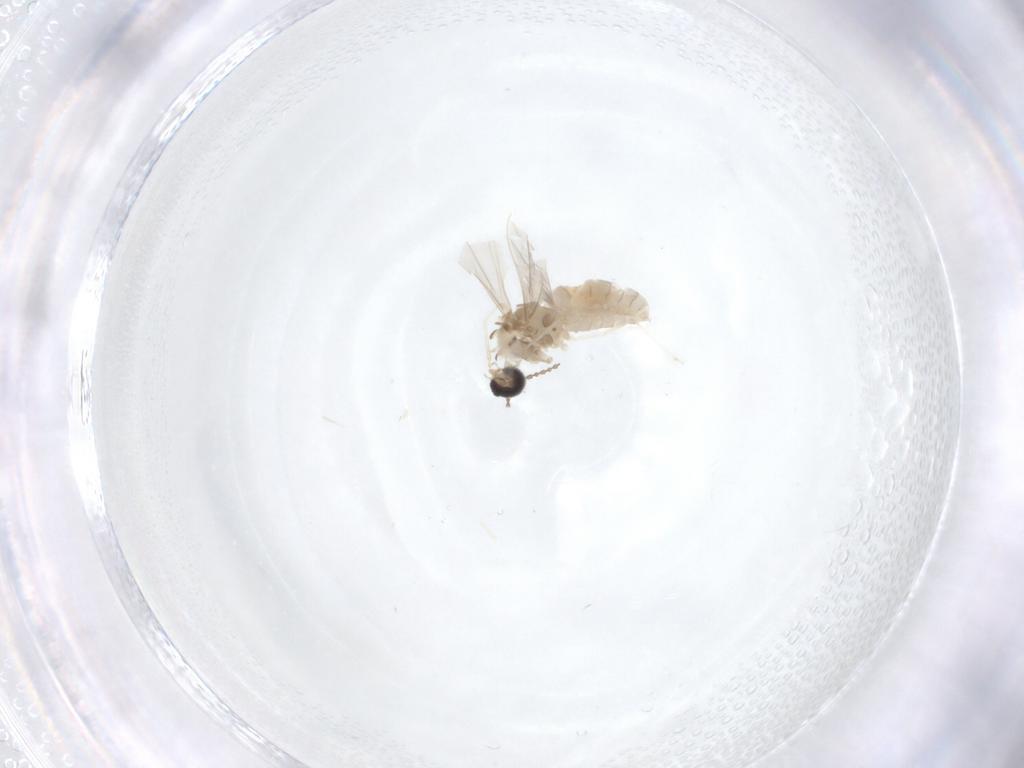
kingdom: Animalia
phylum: Arthropoda
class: Insecta
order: Diptera
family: Cecidomyiidae
